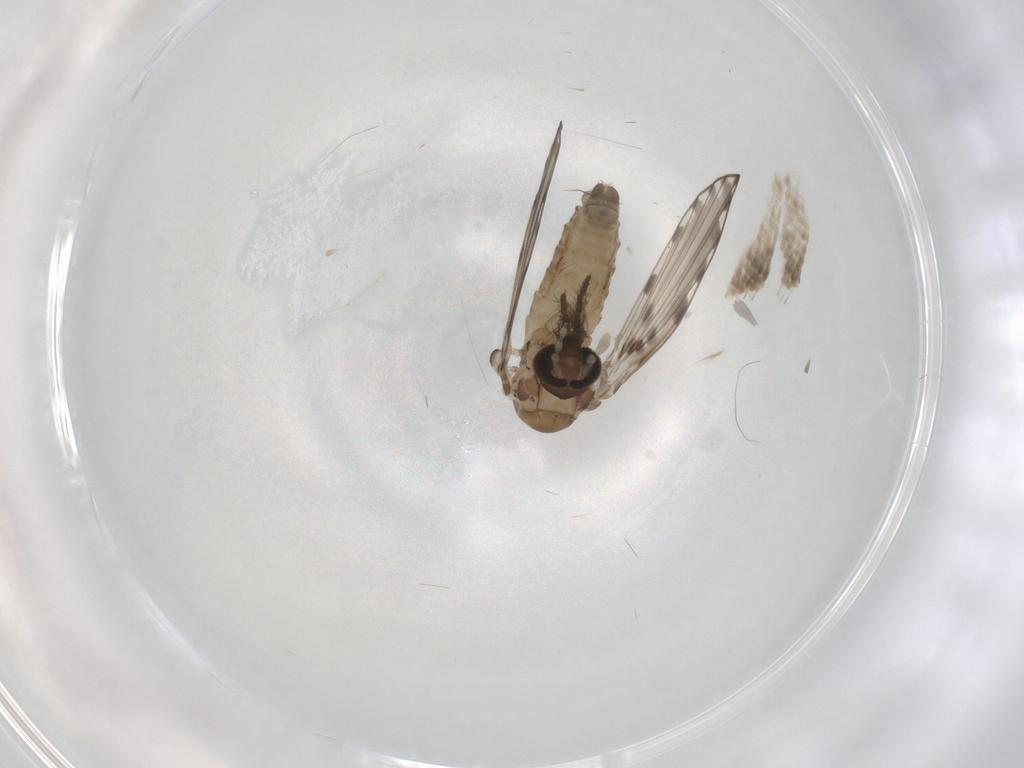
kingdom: Animalia
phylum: Arthropoda
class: Insecta
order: Diptera
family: Psychodidae
